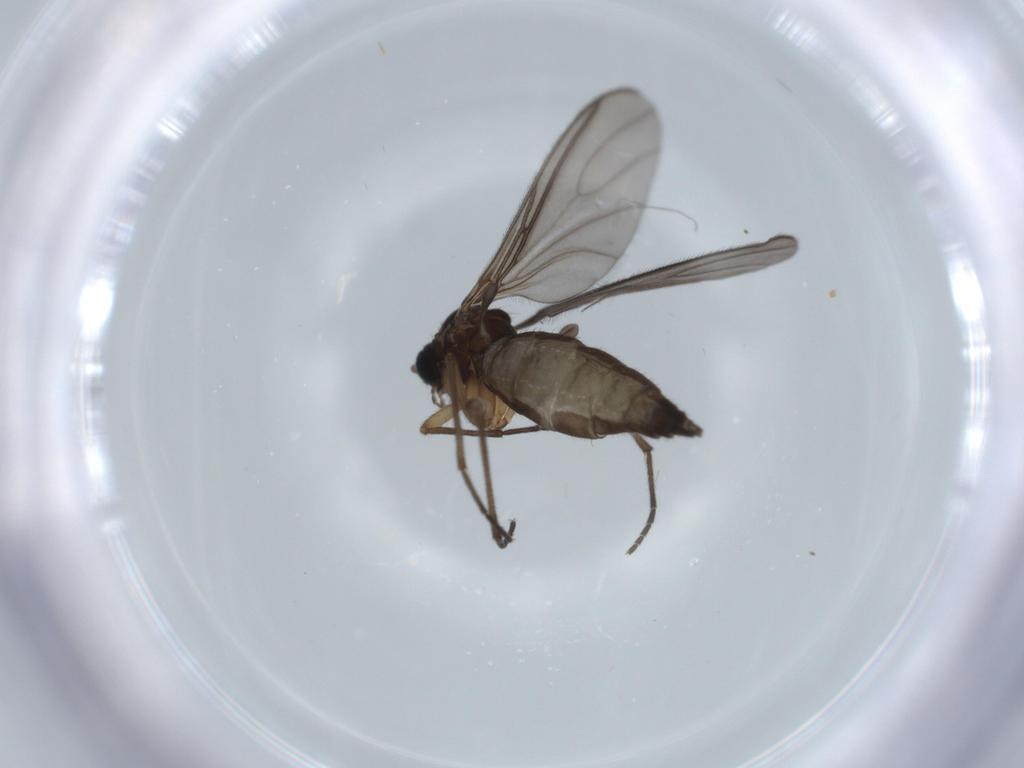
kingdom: Animalia
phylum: Arthropoda
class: Insecta
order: Diptera
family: Sciaridae
